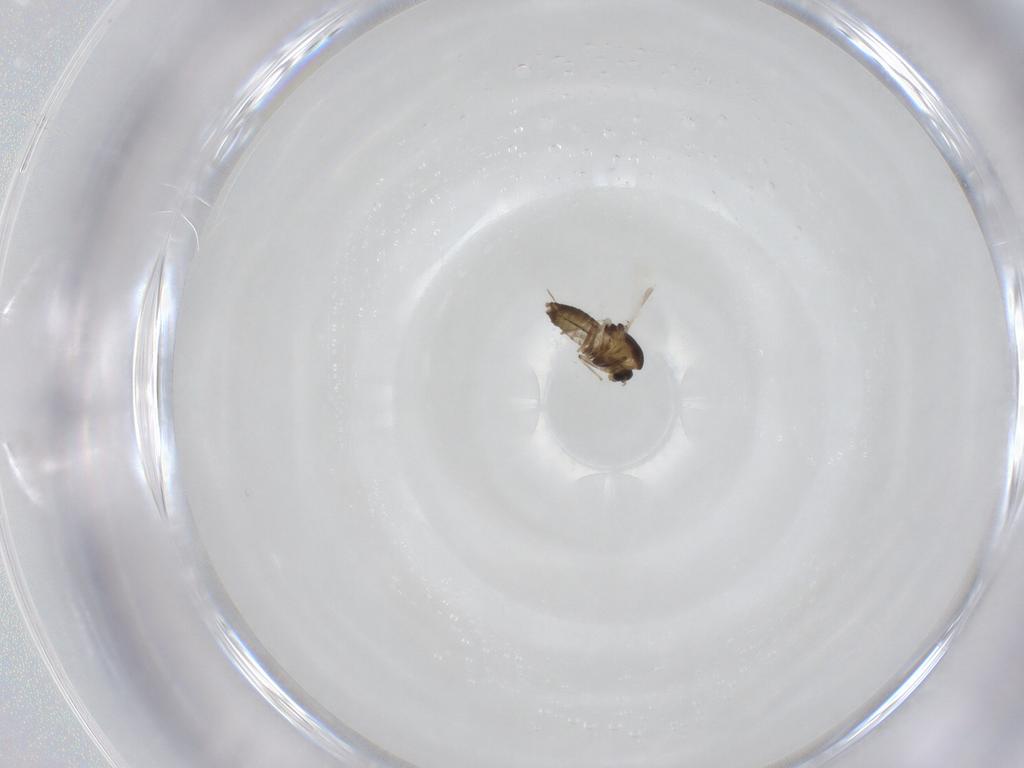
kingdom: Animalia
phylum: Arthropoda
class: Insecta
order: Diptera
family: Chironomidae
